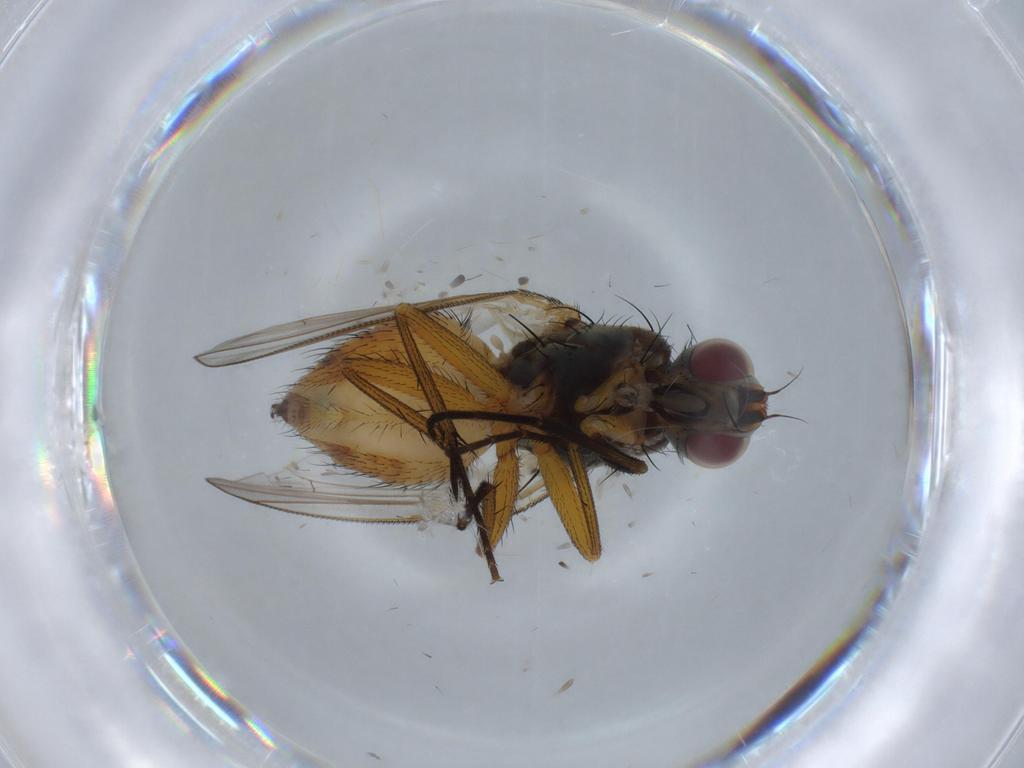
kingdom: Animalia
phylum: Arthropoda
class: Insecta
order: Diptera
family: Muscidae
